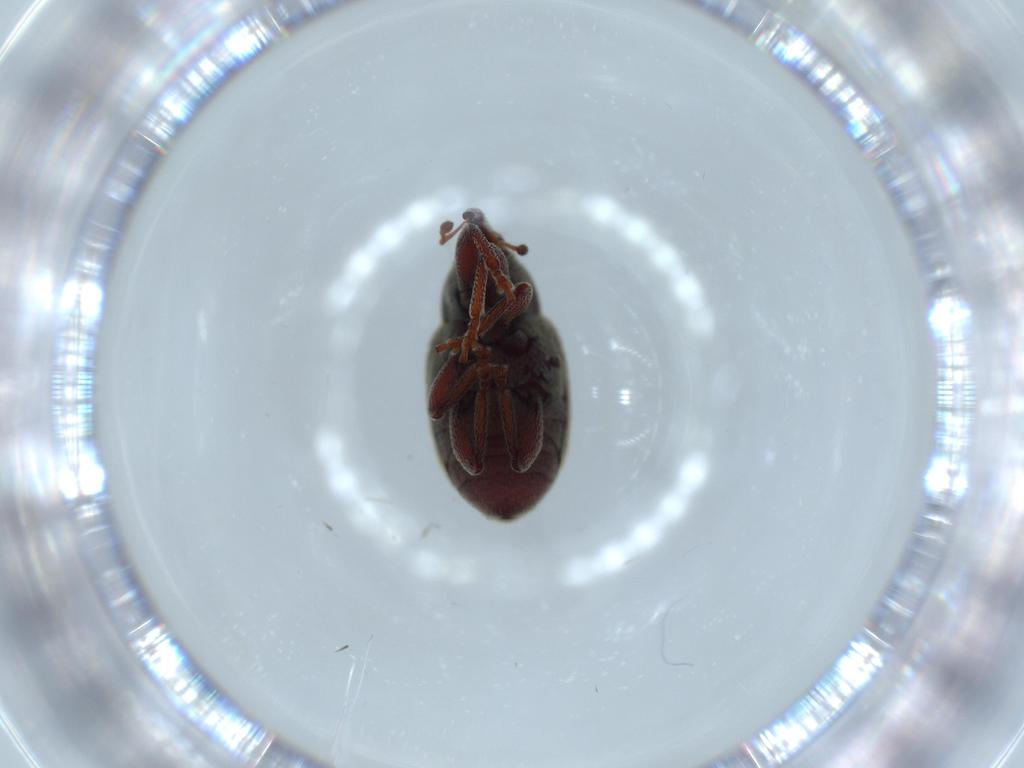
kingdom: Animalia
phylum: Arthropoda
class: Insecta
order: Coleoptera
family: Curculionidae
